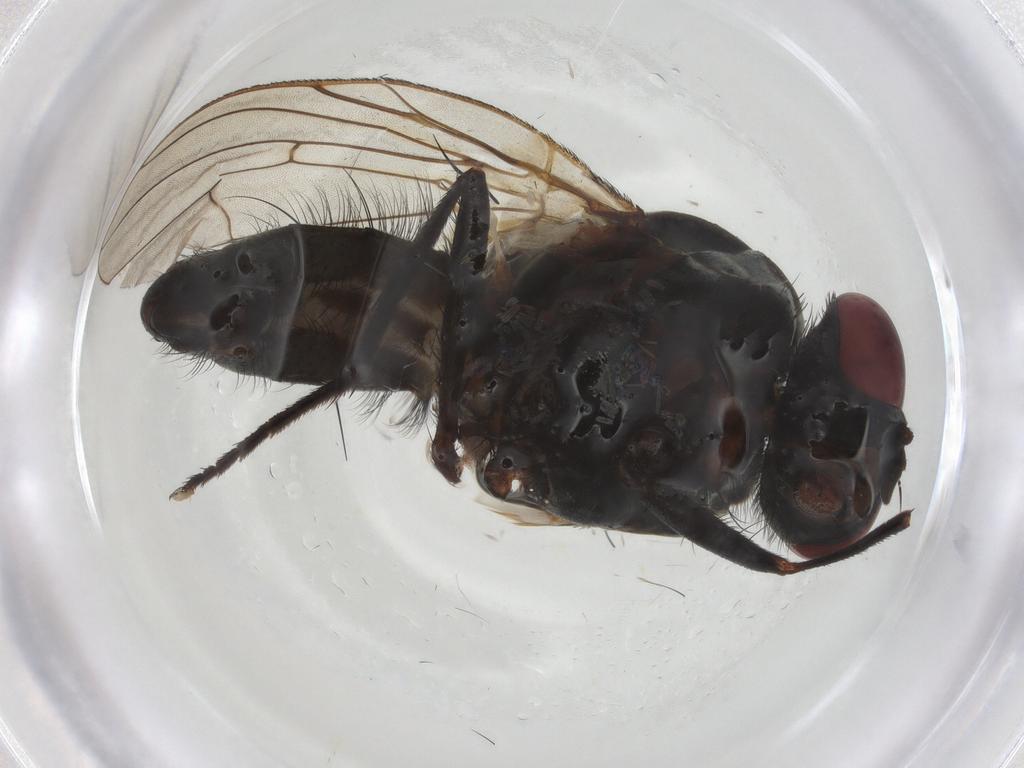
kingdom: Animalia
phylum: Arthropoda
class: Insecta
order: Diptera
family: Anthomyiidae
